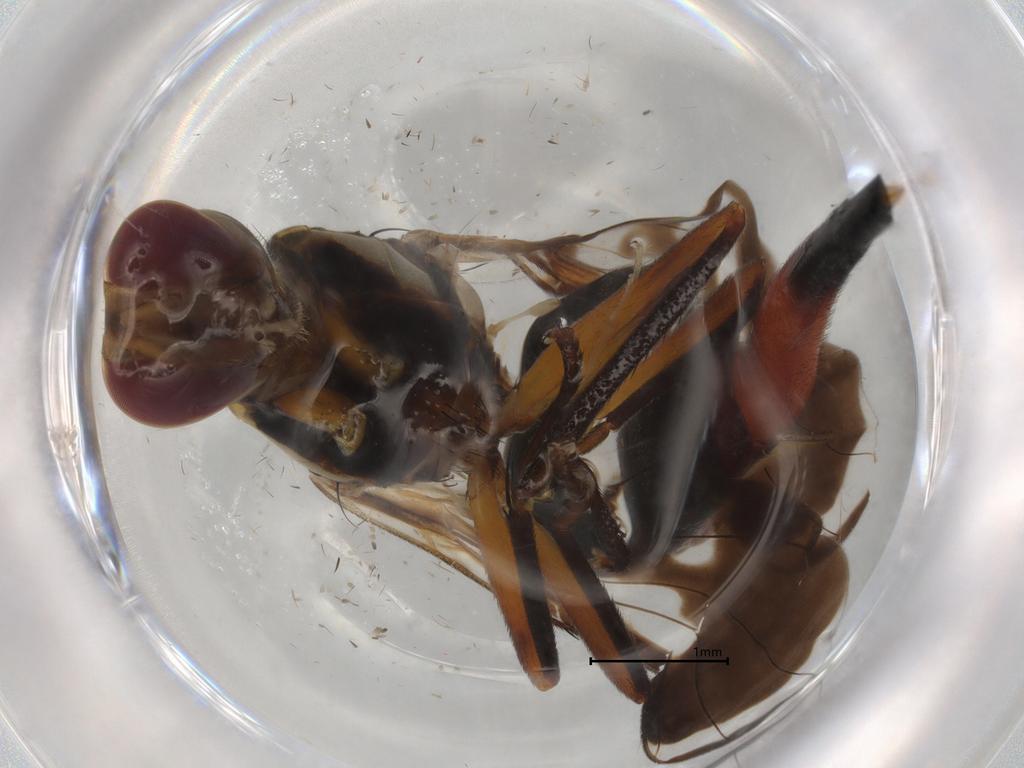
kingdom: Animalia
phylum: Arthropoda
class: Insecta
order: Diptera
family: Tephritidae
